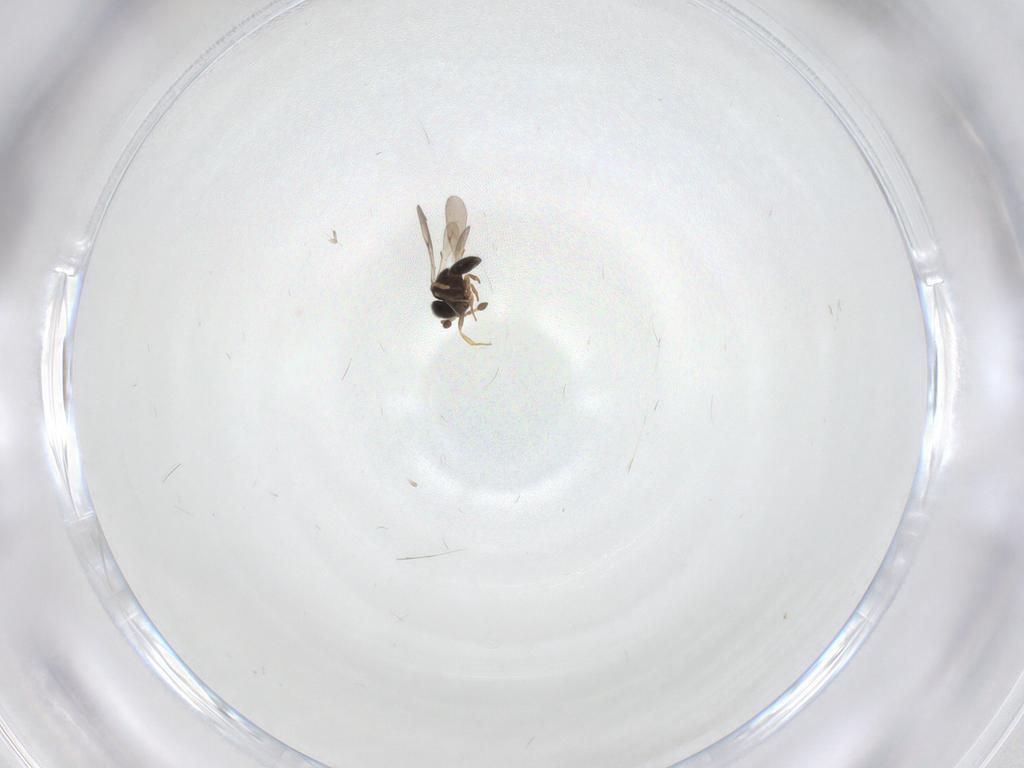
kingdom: Animalia
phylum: Arthropoda
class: Insecta
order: Hymenoptera
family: Scelionidae
